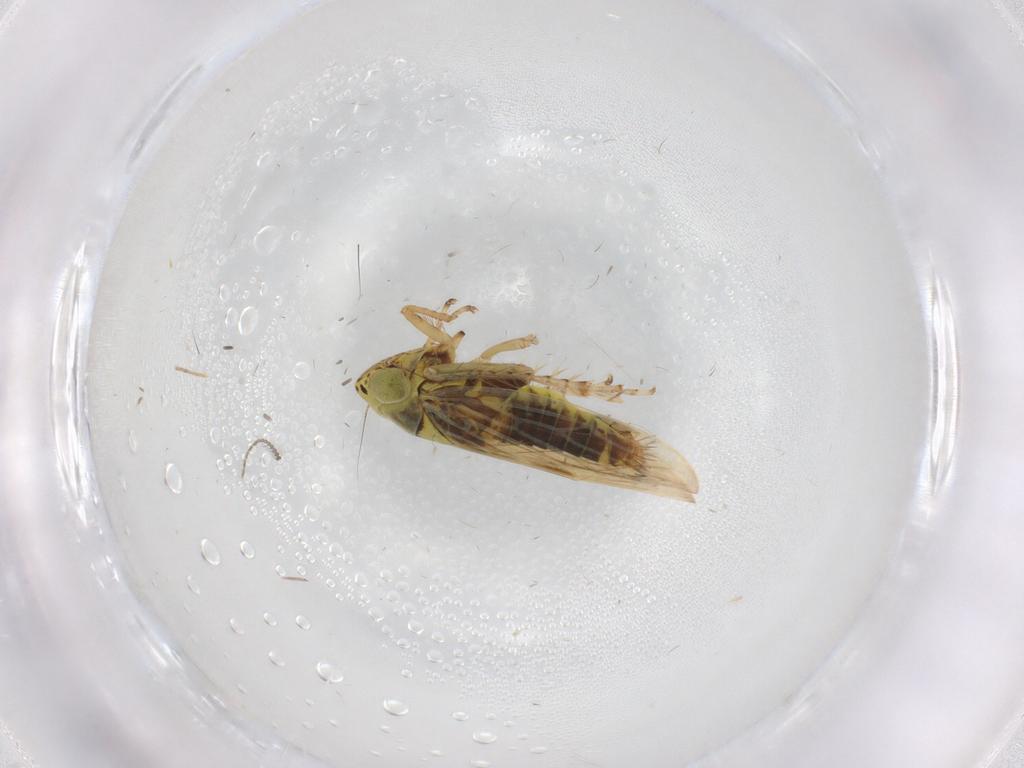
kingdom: Animalia
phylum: Arthropoda
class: Insecta
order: Hemiptera
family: Cicadellidae
